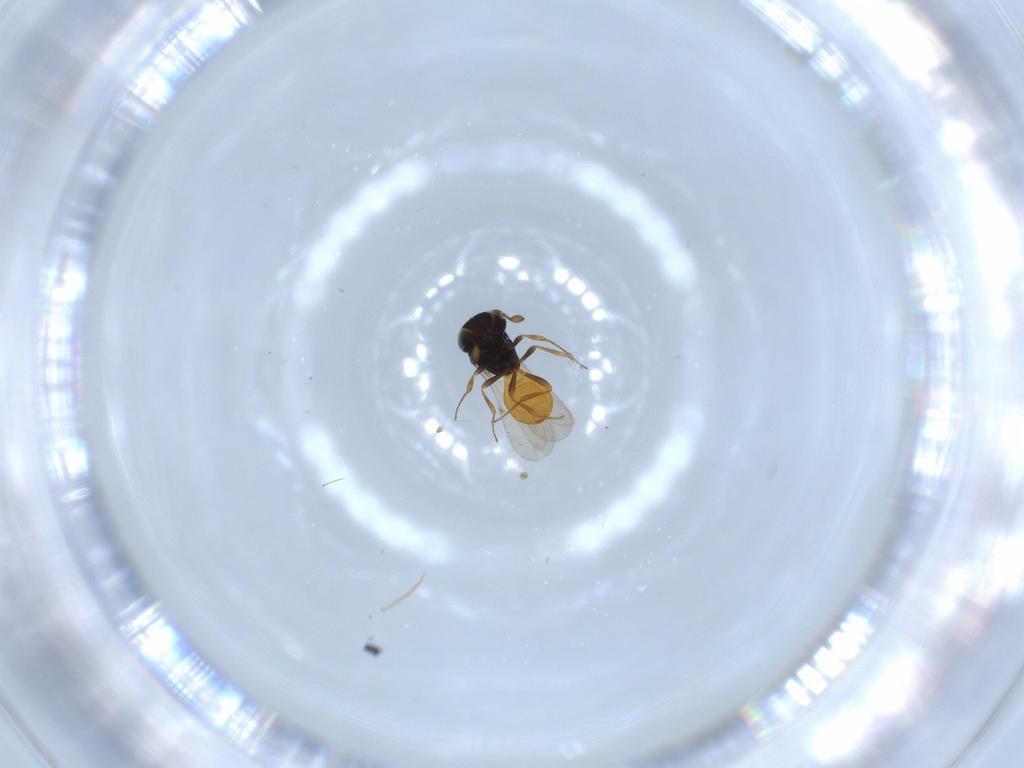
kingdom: Animalia
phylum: Arthropoda
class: Insecta
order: Hymenoptera
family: Scelionidae
